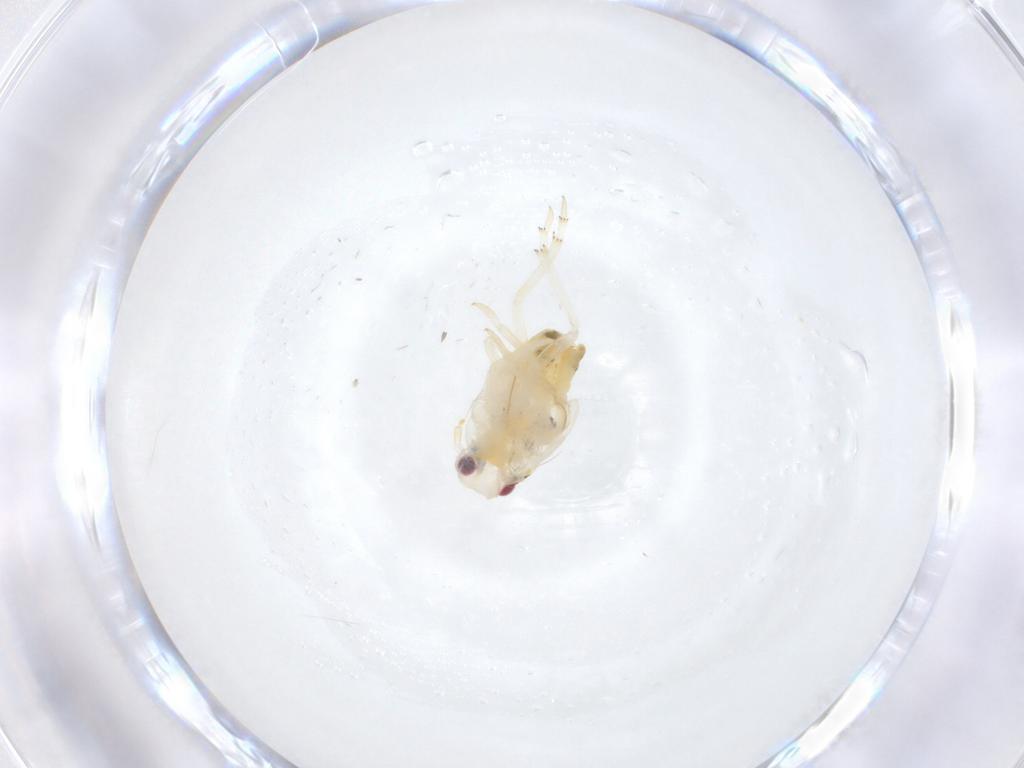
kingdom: Animalia
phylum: Arthropoda
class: Insecta
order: Hemiptera
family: Flatidae
